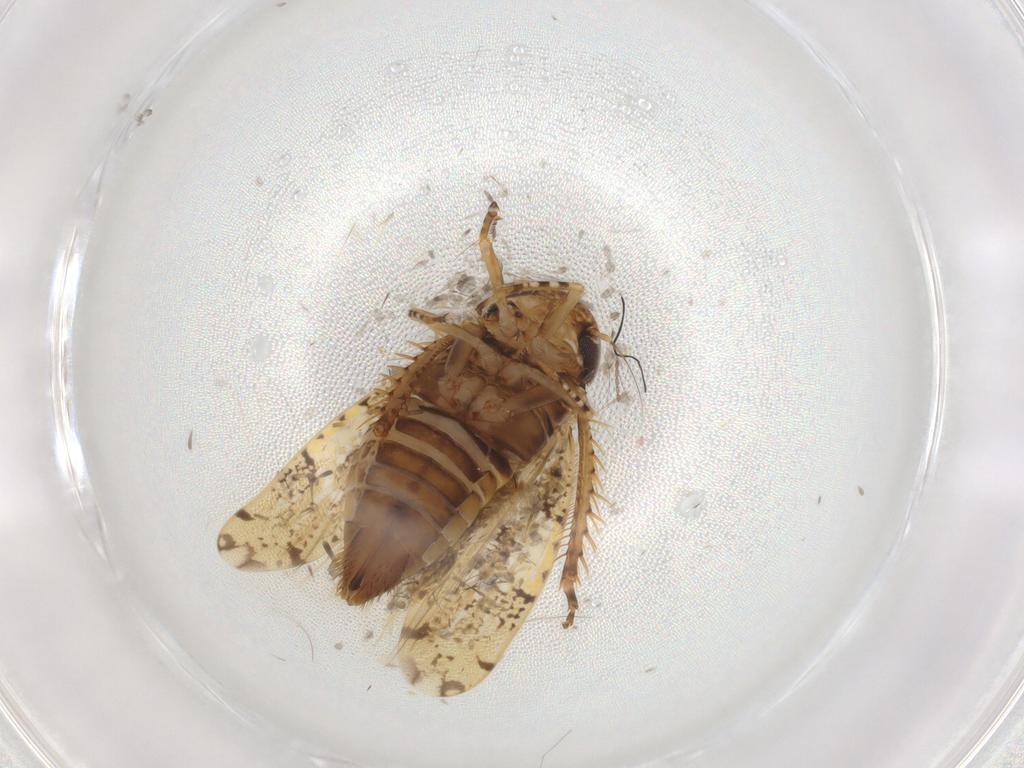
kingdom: Animalia
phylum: Arthropoda
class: Insecta
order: Hemiptera
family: Cicadellidae
